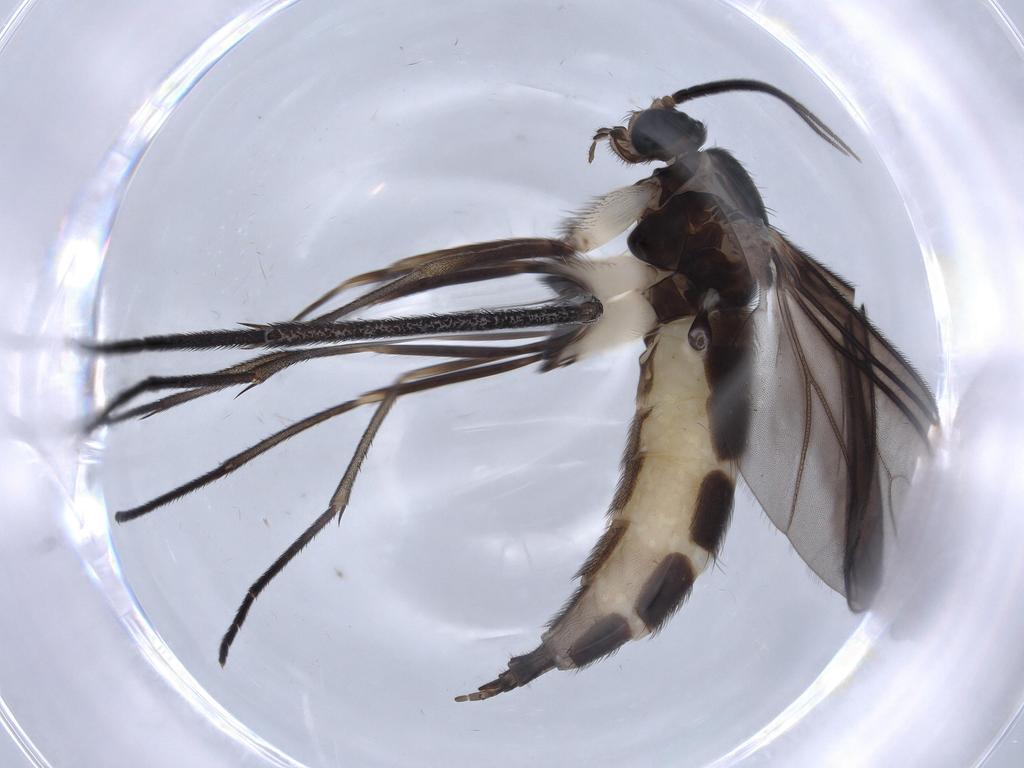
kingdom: Animalia
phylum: Arthropoda
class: Insecta
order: Diptera
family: Sciaridae
